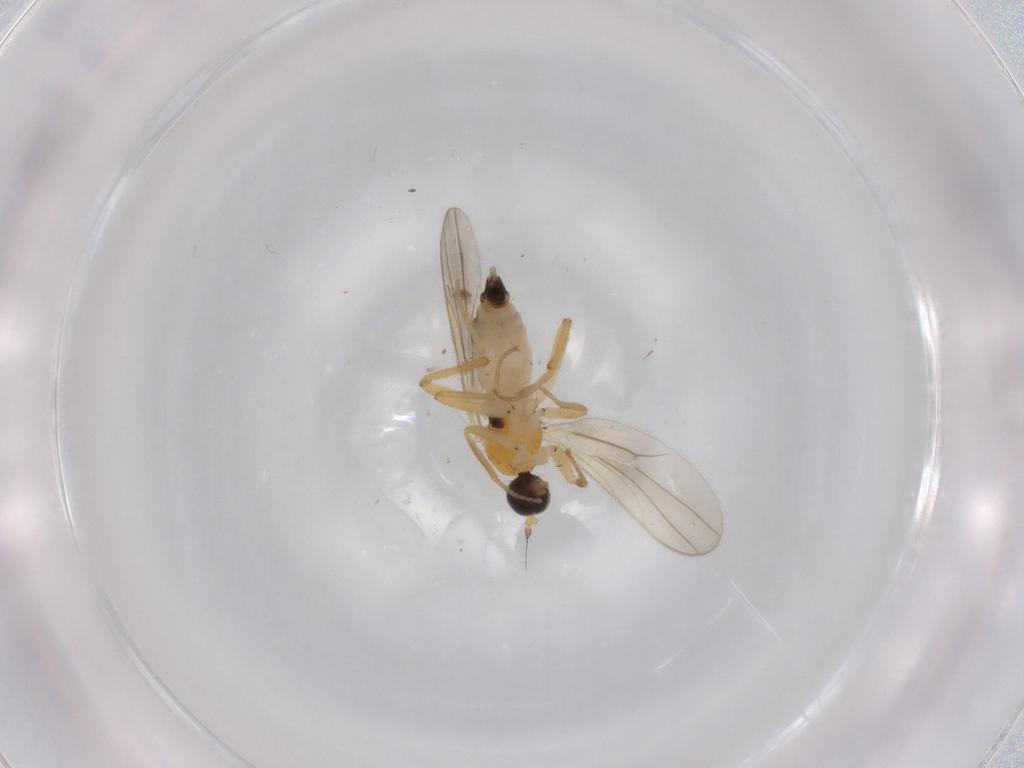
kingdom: Animalia
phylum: Arthropoda
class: Insecta
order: Diptera
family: Hybotidae
